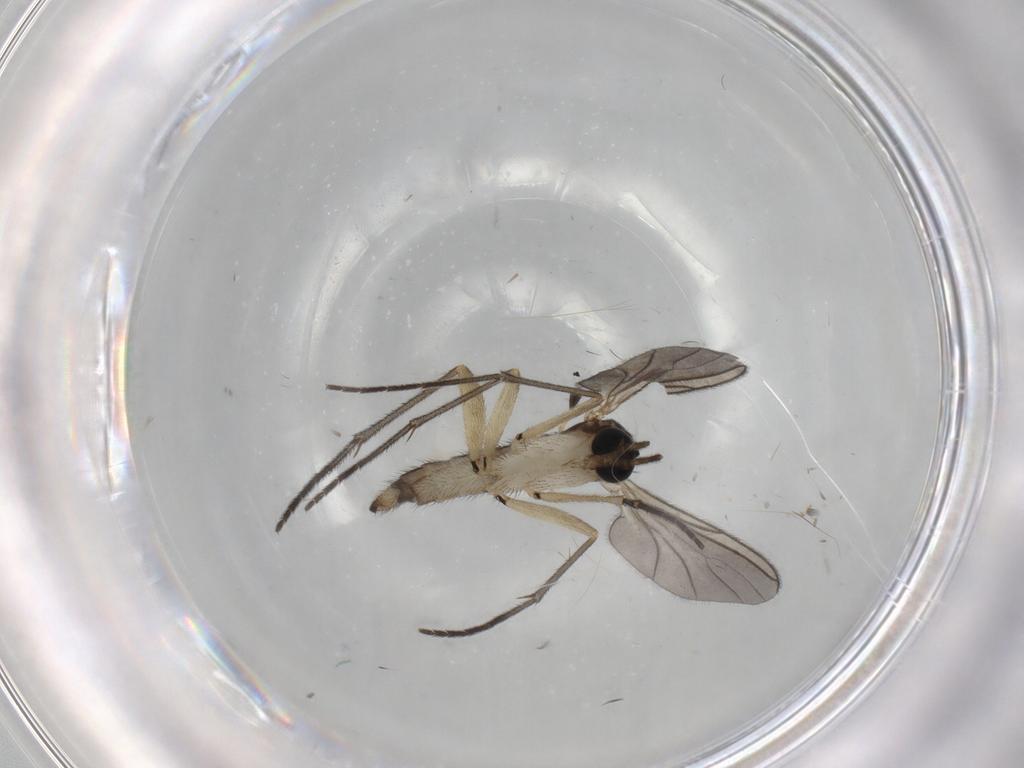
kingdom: Animalia
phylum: Arthropoda
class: Insecta
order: Diptera
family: Sciaridae
